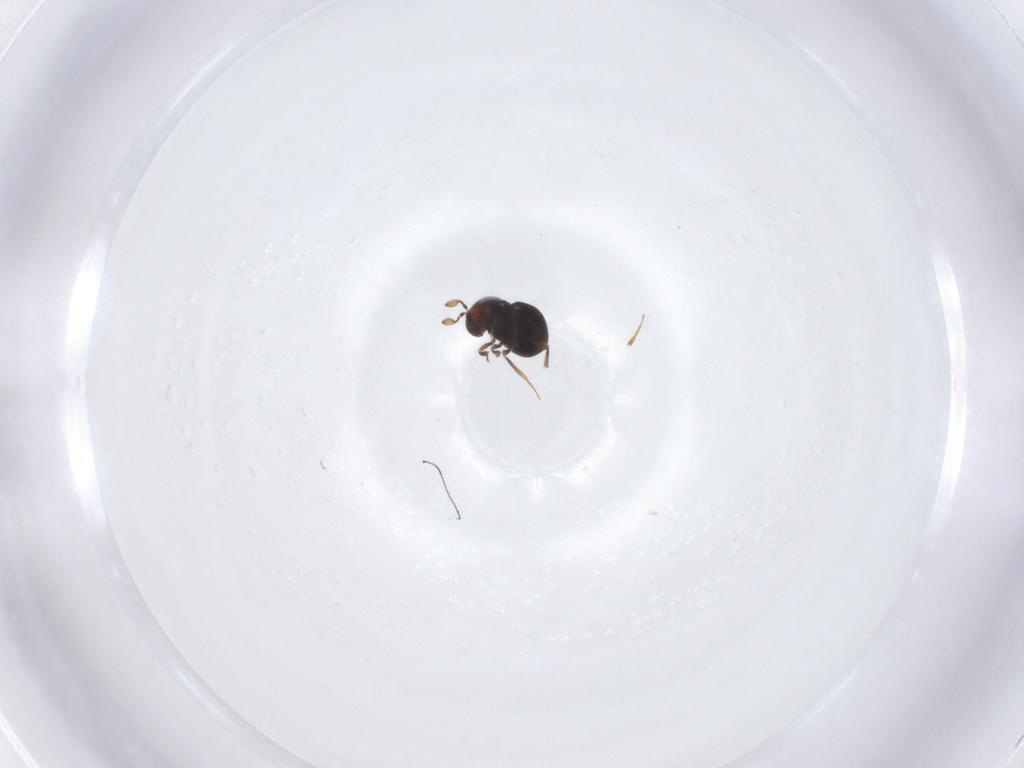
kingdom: Animalia
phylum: Arthropoda
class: Insecta
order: Hymenoptera
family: Scelionidae
